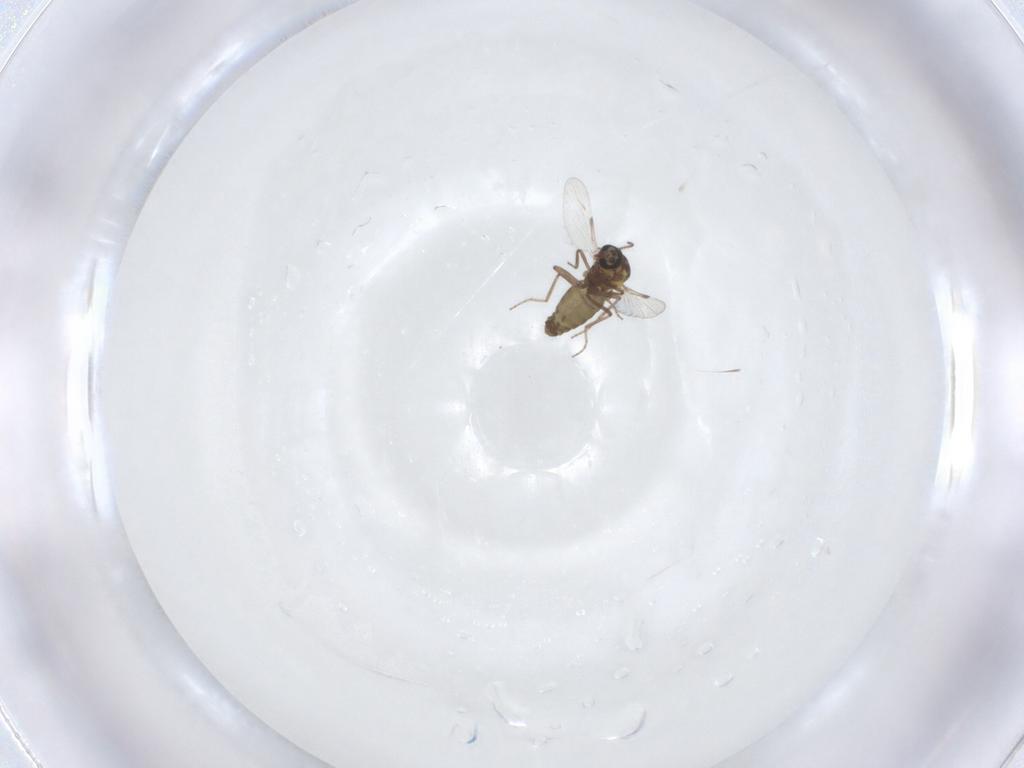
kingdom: Animalia
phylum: Arthropoda
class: Insecta
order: Diptera
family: Ceratopogonidae
